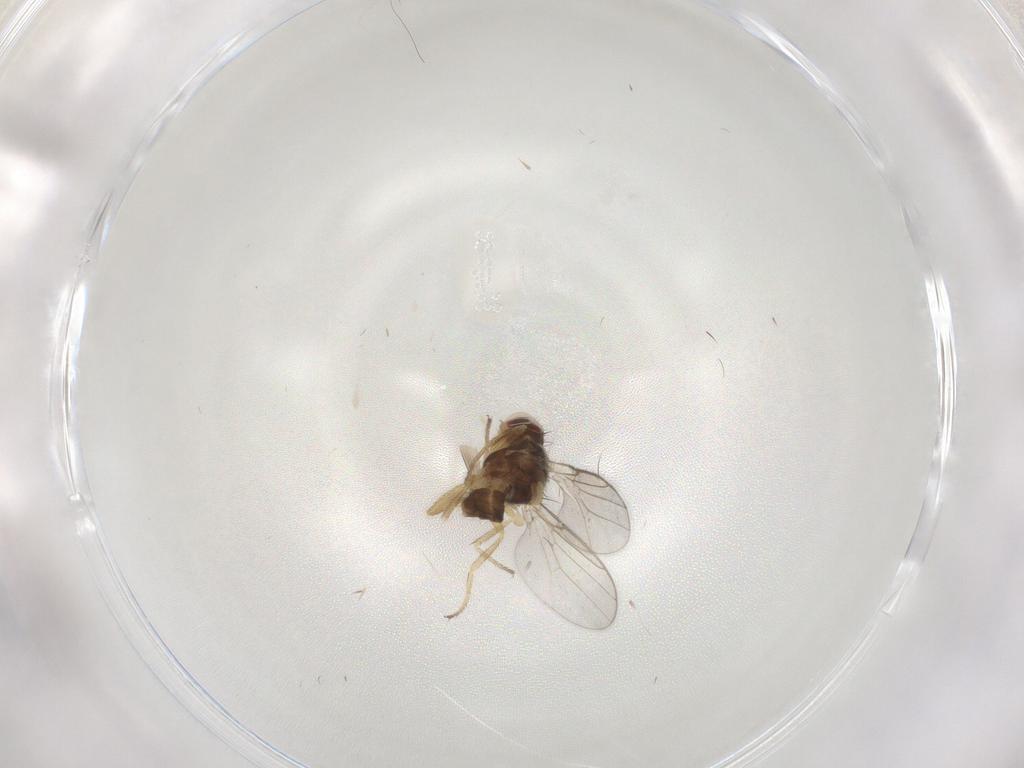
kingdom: Animalia
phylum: Arthropoda
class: Insecta
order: Diptera
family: Chloropidae
